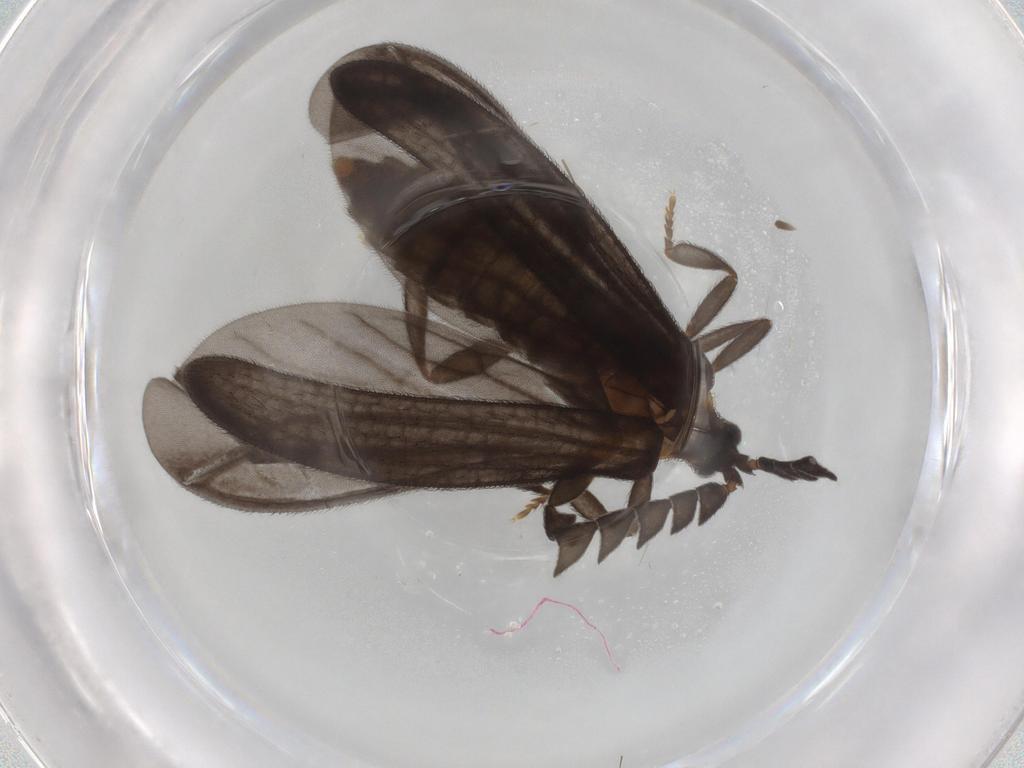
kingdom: Animalia
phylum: Arthropoda
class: Insecta
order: Coleoptera
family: Lycidae
